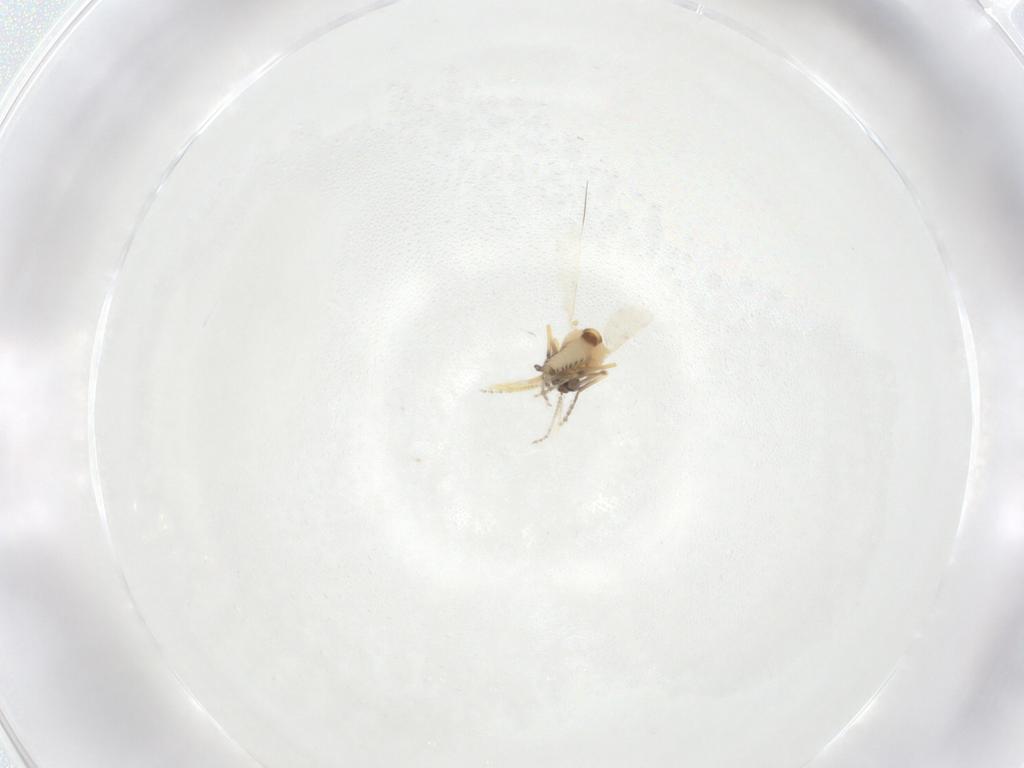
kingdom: Animalia
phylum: Arthropoda
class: Insecta
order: Diptera
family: Cecidomyiidae
